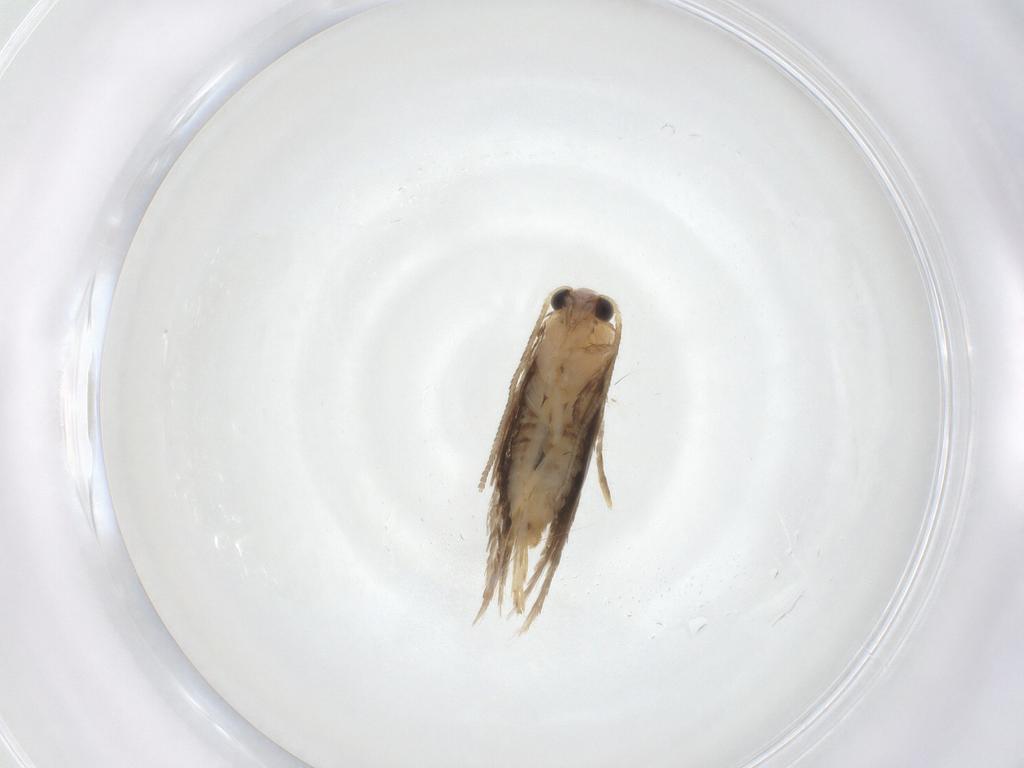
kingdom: Animalia
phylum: Arthropoda
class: Insecta
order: Lepidoptera
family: Nepticulidae
